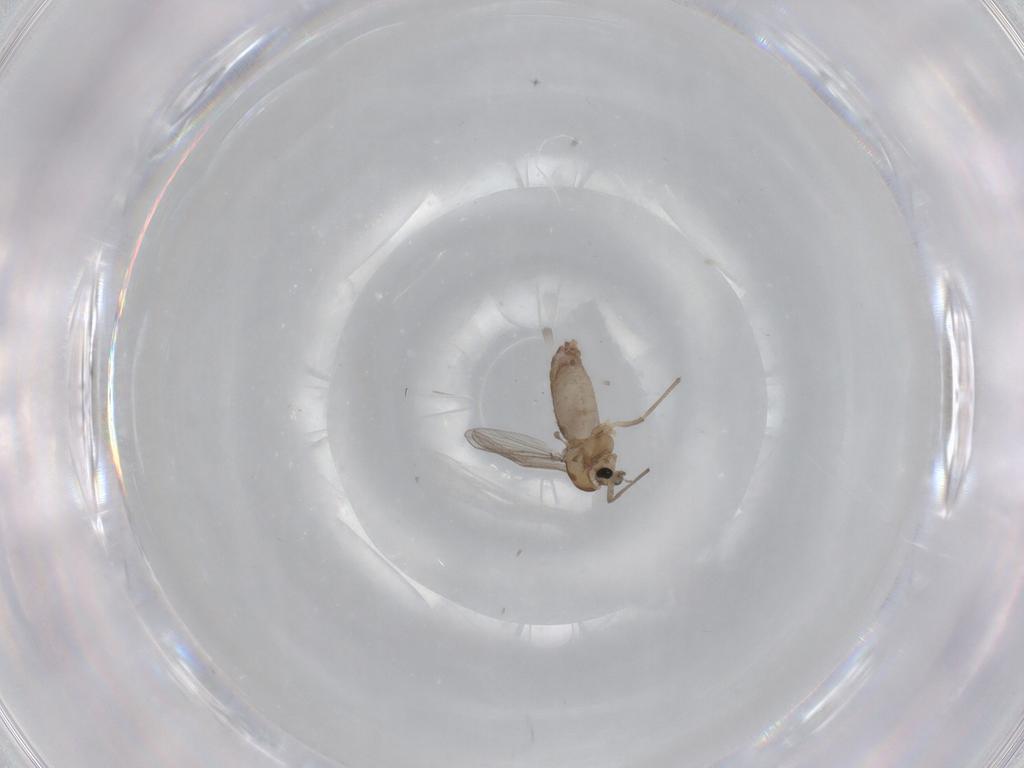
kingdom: Animalia
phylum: Arthropoda
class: Insecta
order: Diptera
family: Chironomidae
